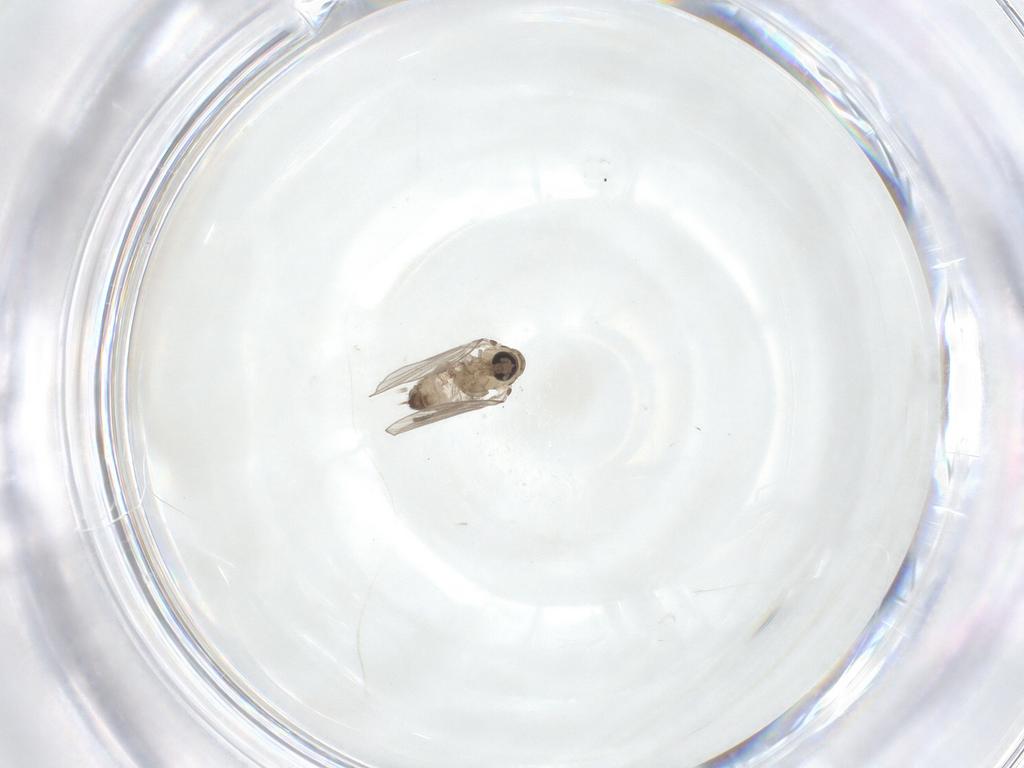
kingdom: Animalia
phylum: Arthropoda
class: Insecta
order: Diptera
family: Psychodidae
